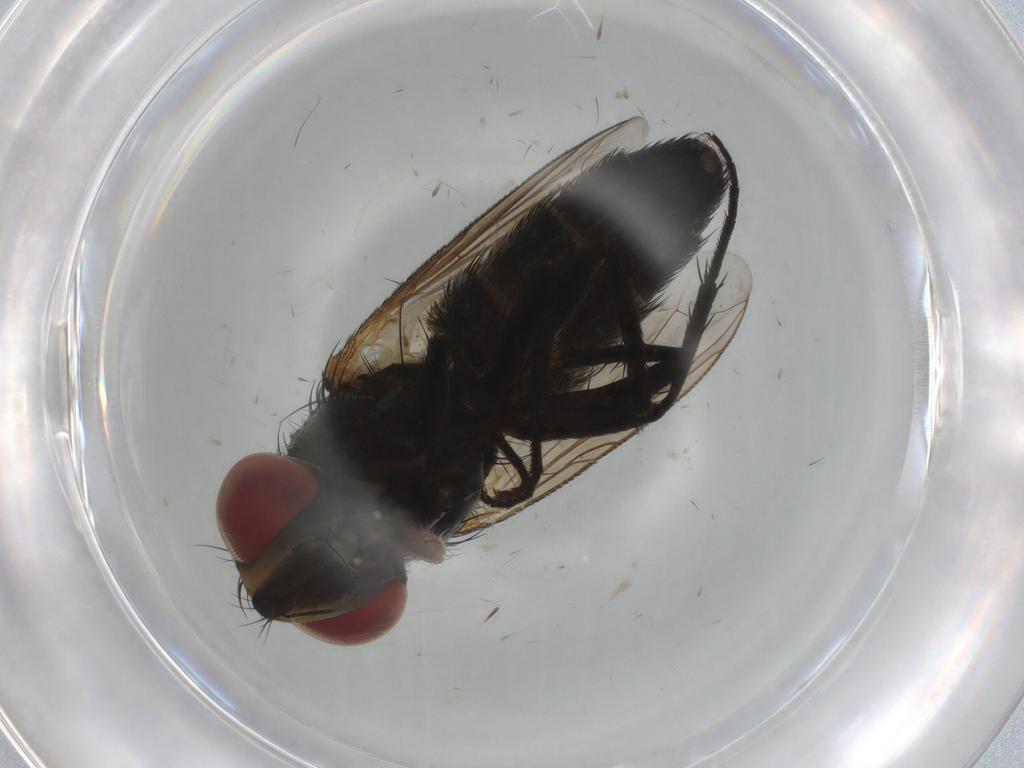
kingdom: Animalia
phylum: Arthropoda
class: Insecta
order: Diptera
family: Anthomyiidae
